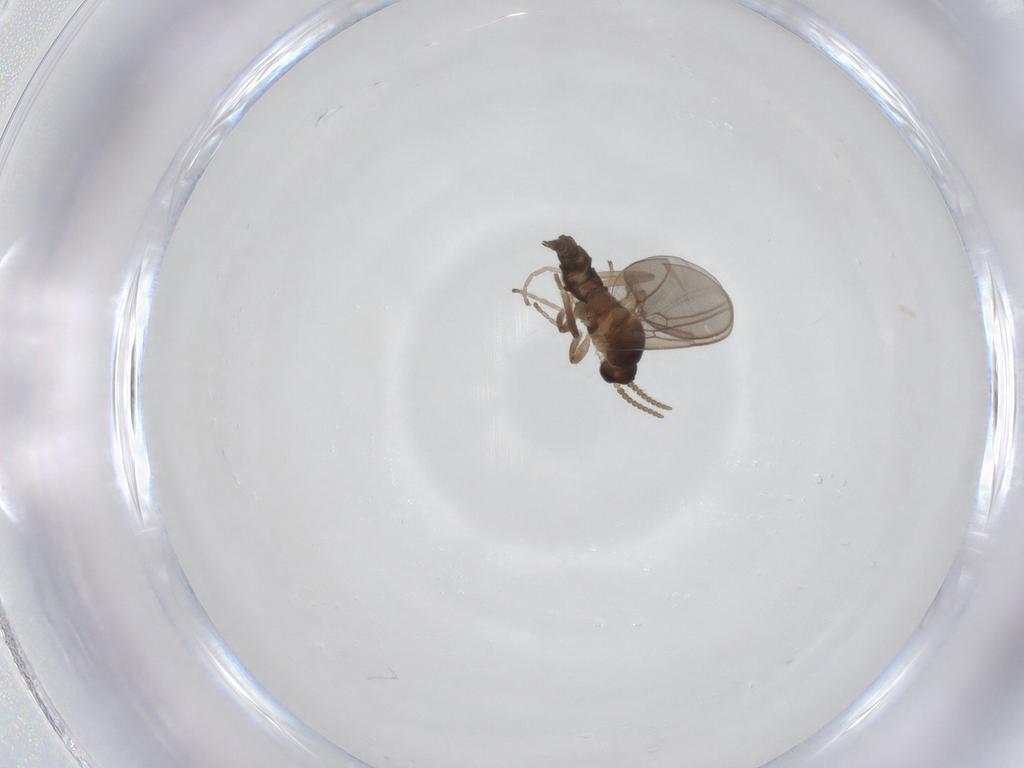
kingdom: Animalia
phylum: Arthropoda
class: Insecta
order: Diptera
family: Cecidomyiidae
